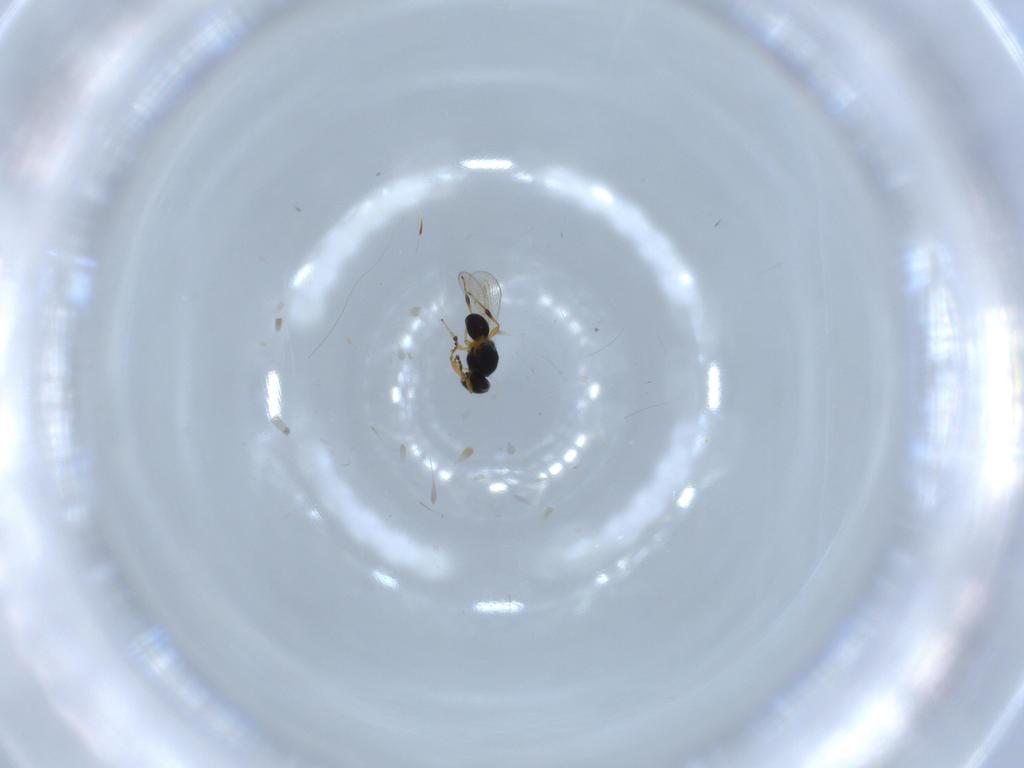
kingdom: Animalia
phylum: Arthropoda
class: Insecta
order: Hymenoptera
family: Platygastridae
